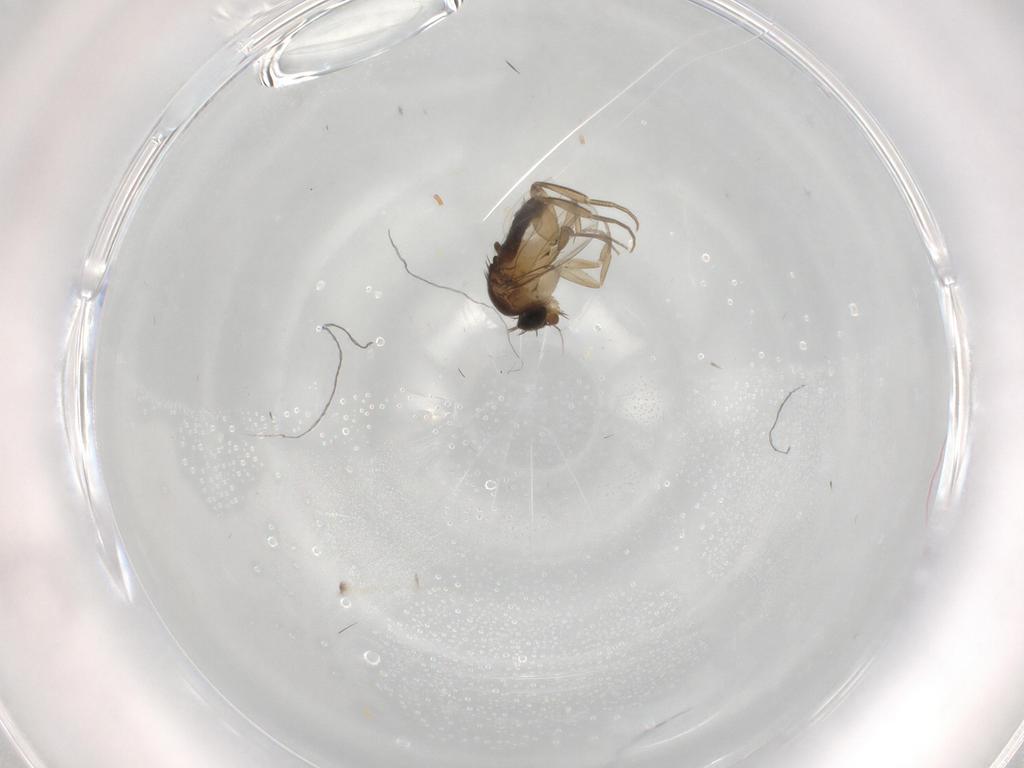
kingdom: Animalia
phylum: Arthropoda
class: Insecta
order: Diptera
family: Phoridae
